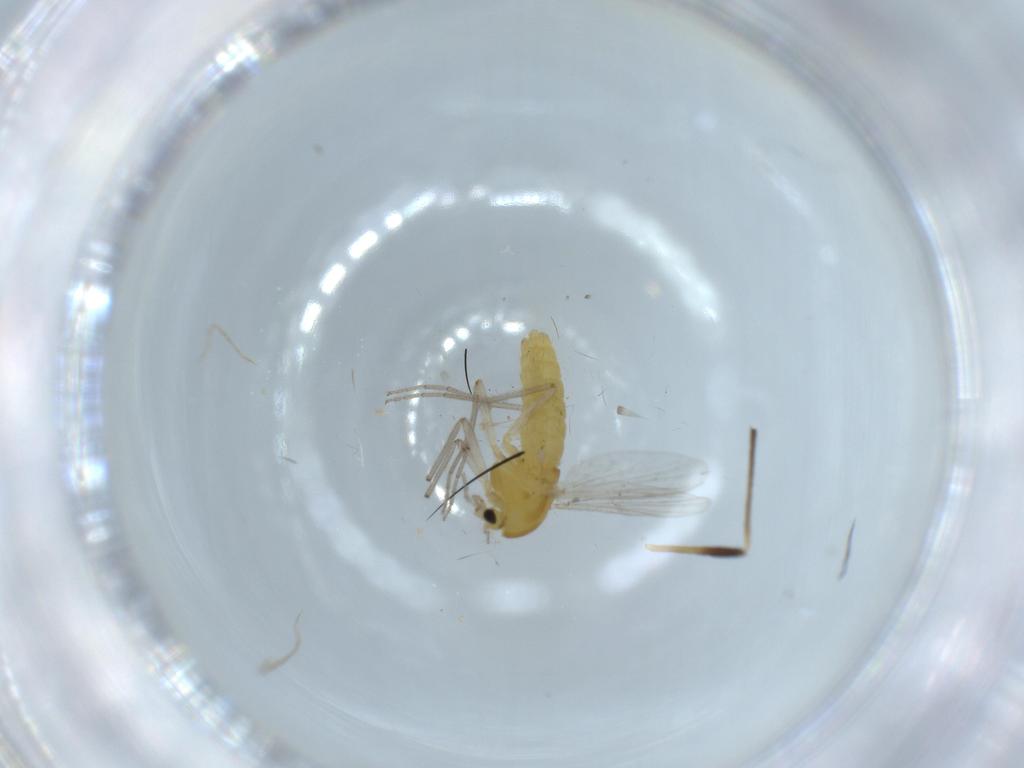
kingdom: Animalia
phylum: Arthropoda
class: Insecta
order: Diptera
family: Chironomidae
